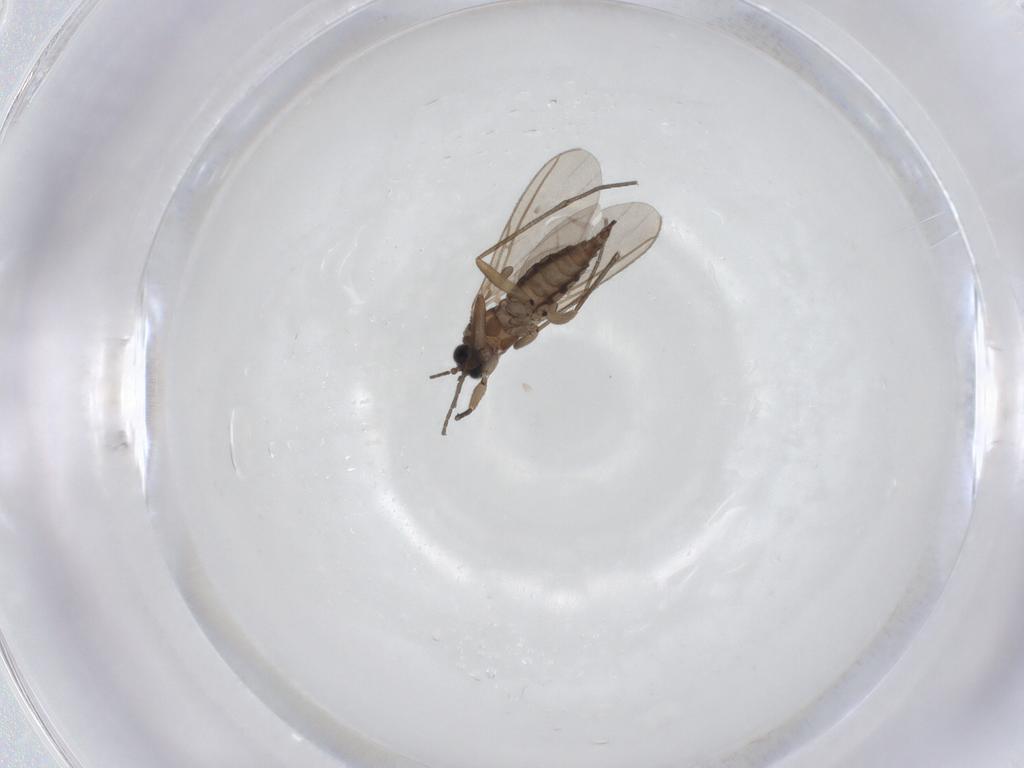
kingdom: Animalia
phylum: Arthropoda
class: Insecta
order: Diptera
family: Sciaridae
